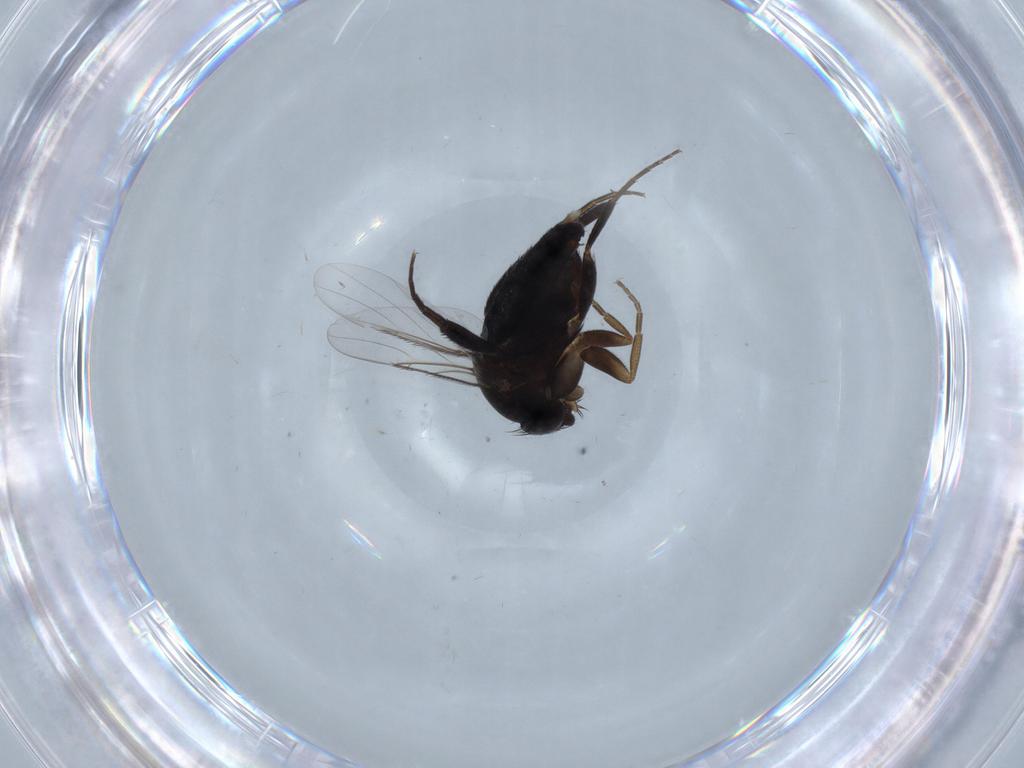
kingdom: Animalia
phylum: Arthropoda
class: Insecta
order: Diptera
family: Phoridae
